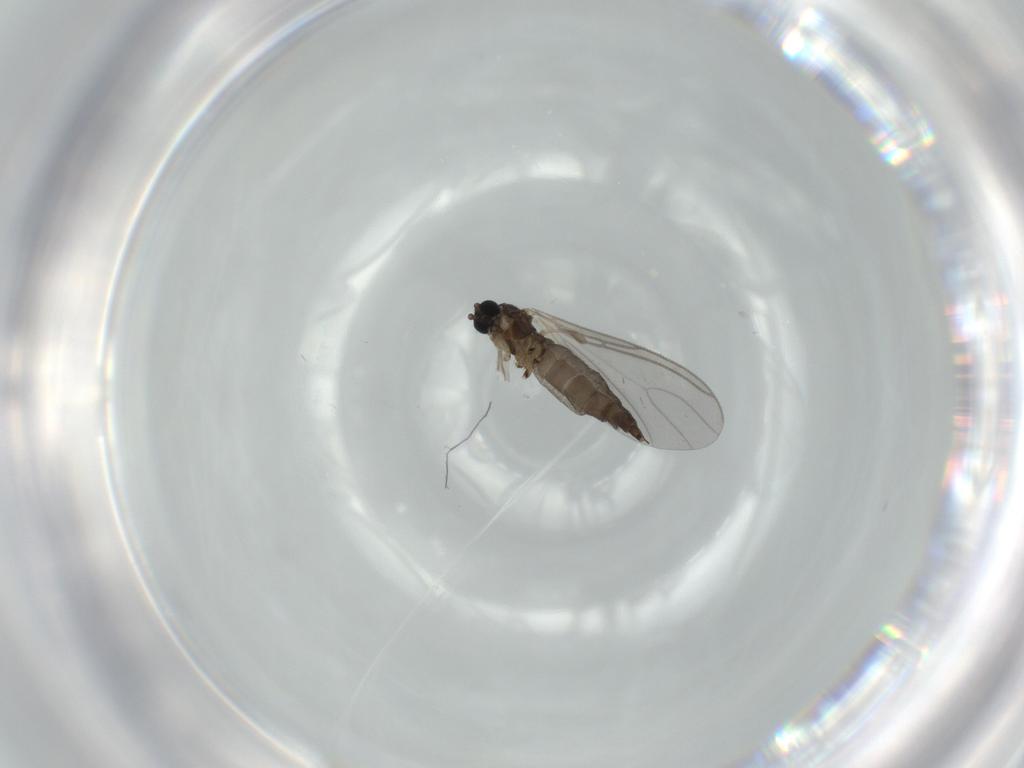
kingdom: Animalia
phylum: Arthropoda
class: Insecta
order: Diptera
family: Sciaridae
